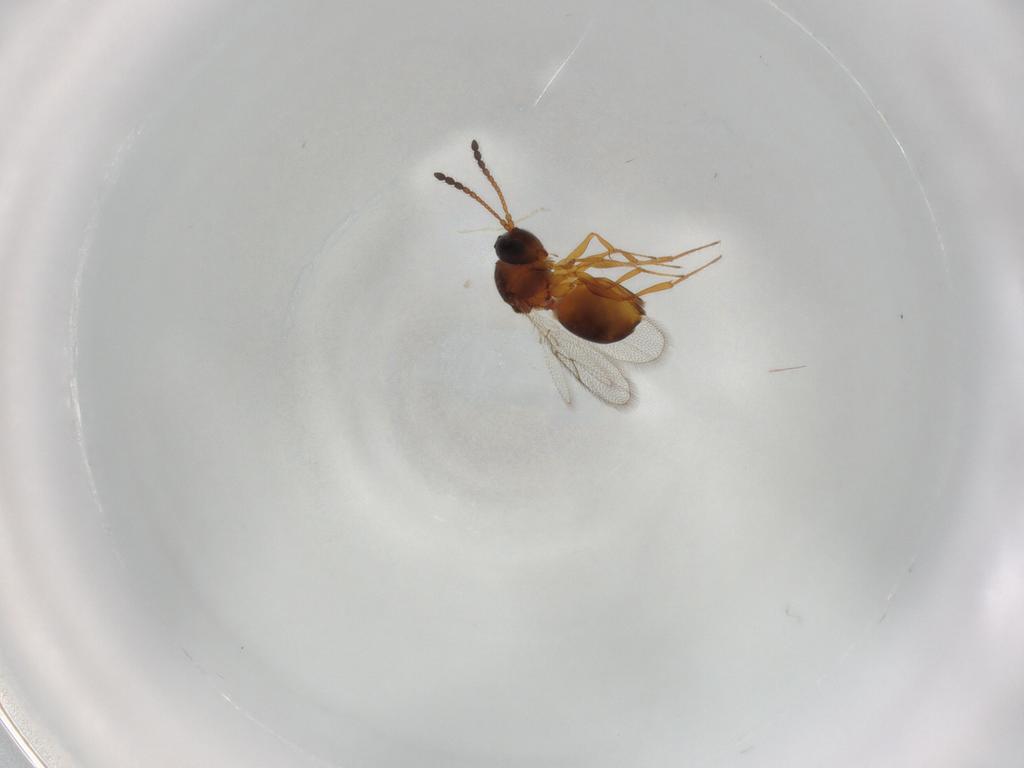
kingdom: Animalia
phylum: Arthropoda
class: Insecta
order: Hymenoptera
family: Figitidae
